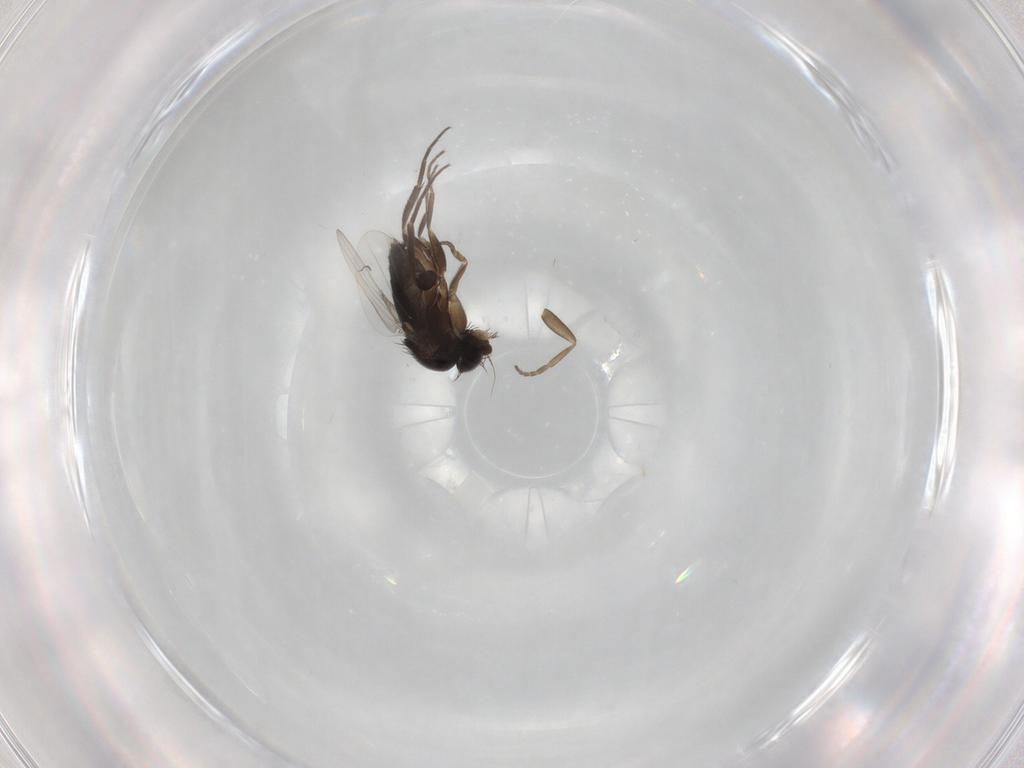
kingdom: Animalia
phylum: Arthropoda
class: Insecta
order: Diptera
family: Phoridae
